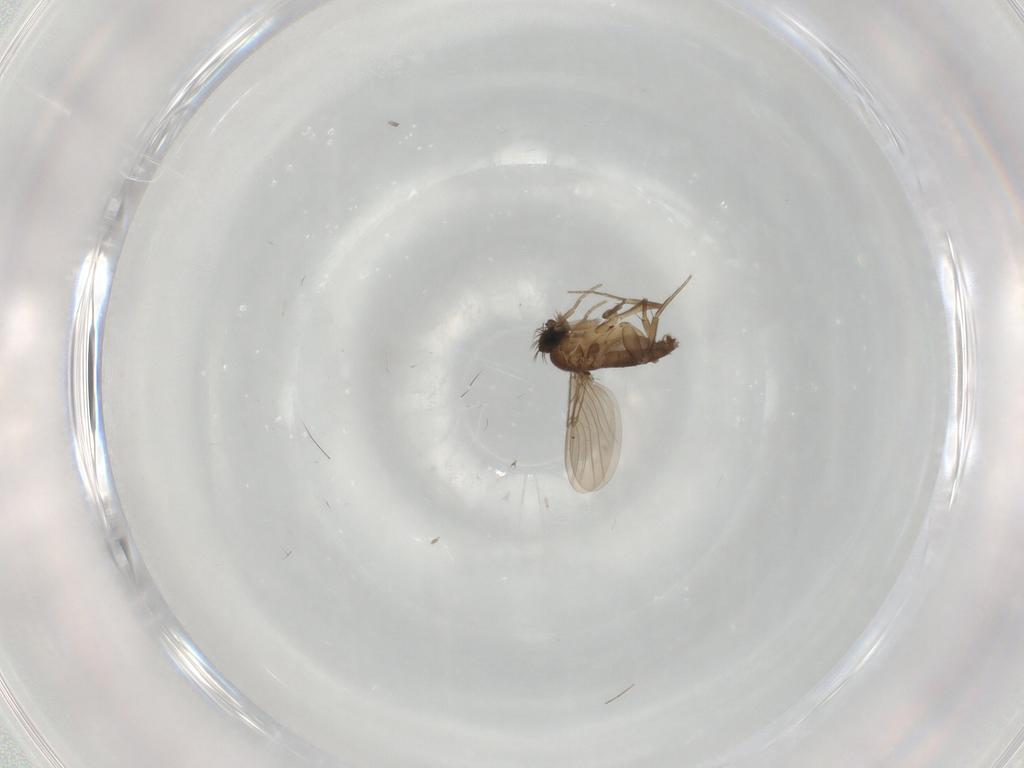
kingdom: Animalia
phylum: Arthropoda
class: Insecta
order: Diptera
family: Phoridae
